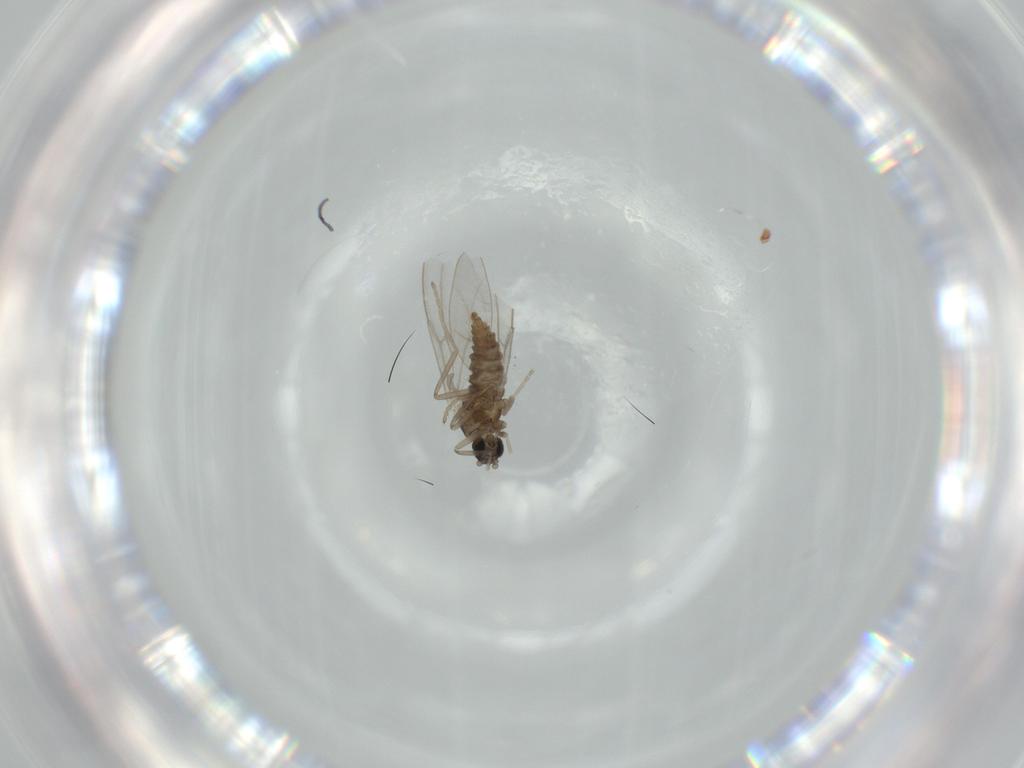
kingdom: Animalia
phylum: Arthropoda
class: Insecta
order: Diptera
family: Cecidomyiidae
